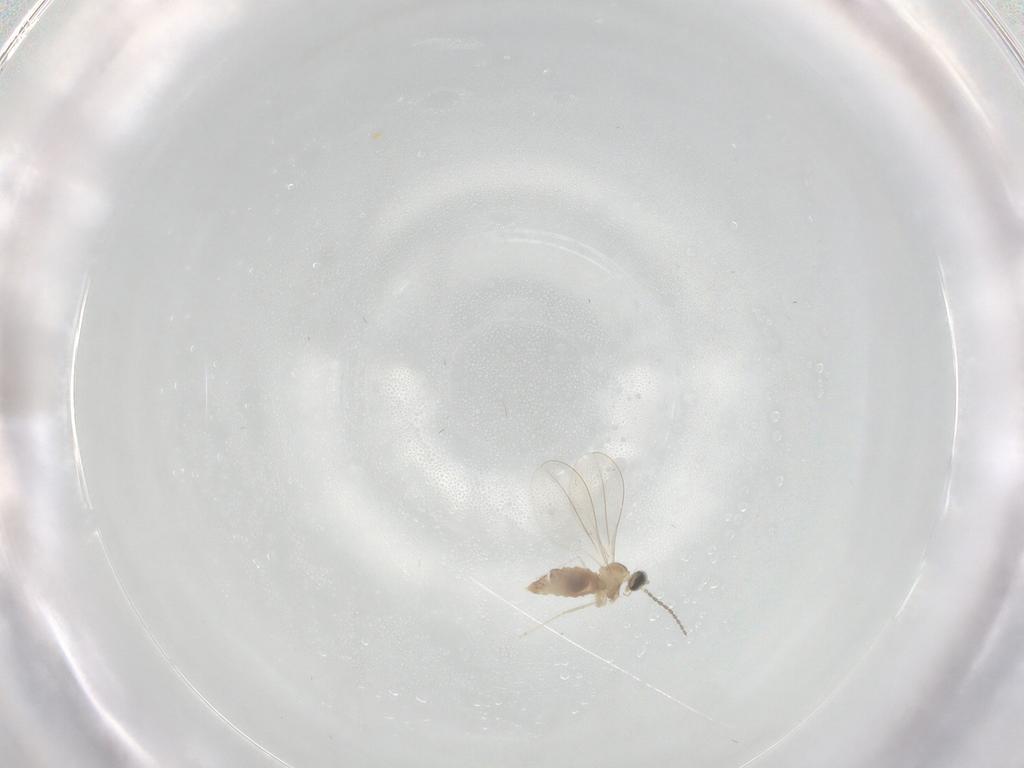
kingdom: Animalia
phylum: Arthropoda
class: Insecta
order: Diptera
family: Cecidomyiidae
